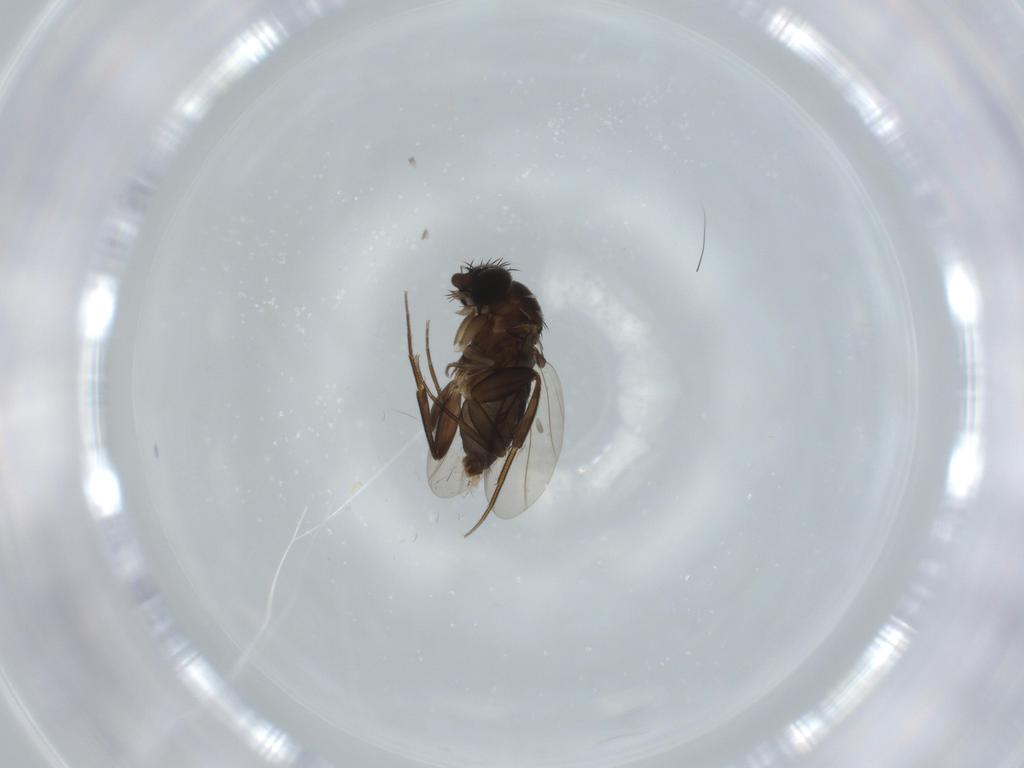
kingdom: Animalia
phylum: Arthropoda
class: Insecta
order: Diptera
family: Phoridae
